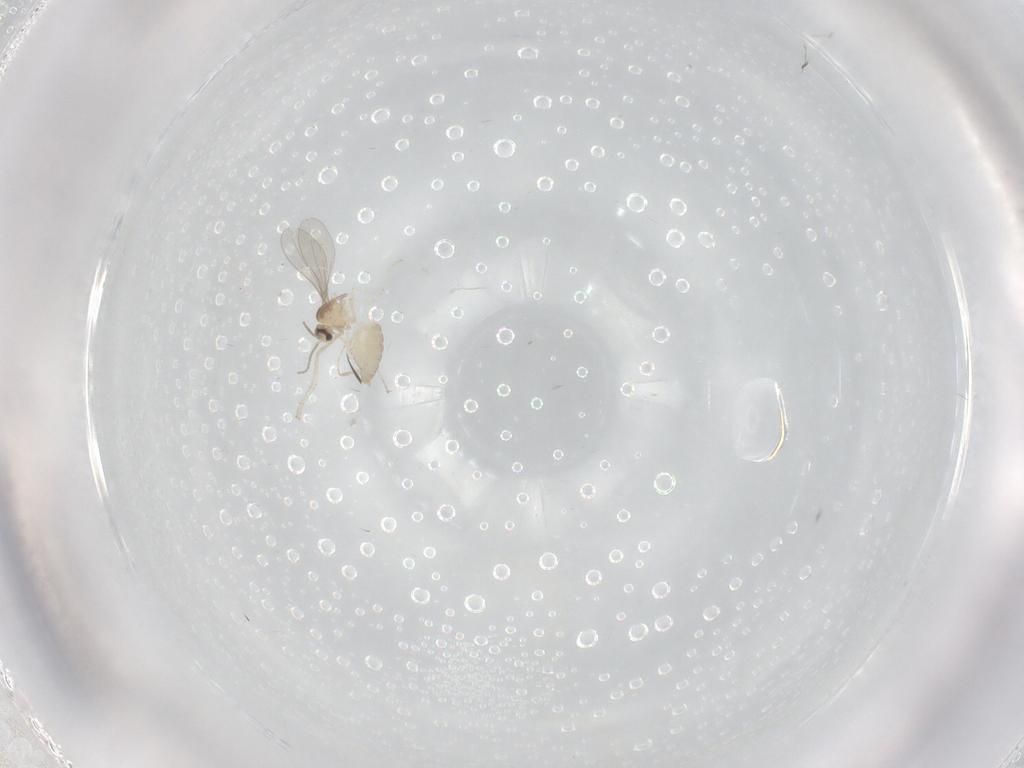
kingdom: Animalia
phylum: Arthropoda
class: Insecta
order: Diptera
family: Cecidomyiidae
